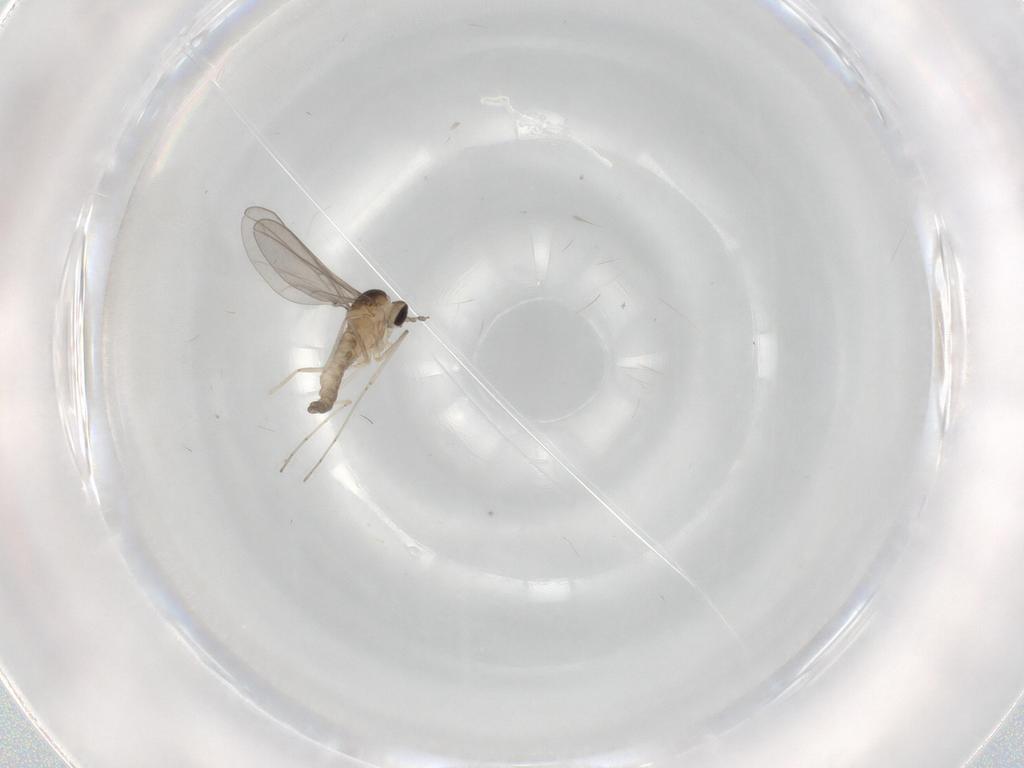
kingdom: Animalia
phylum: Arthropoda
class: Insecta
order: Diptera
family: Cecidomyiidae
